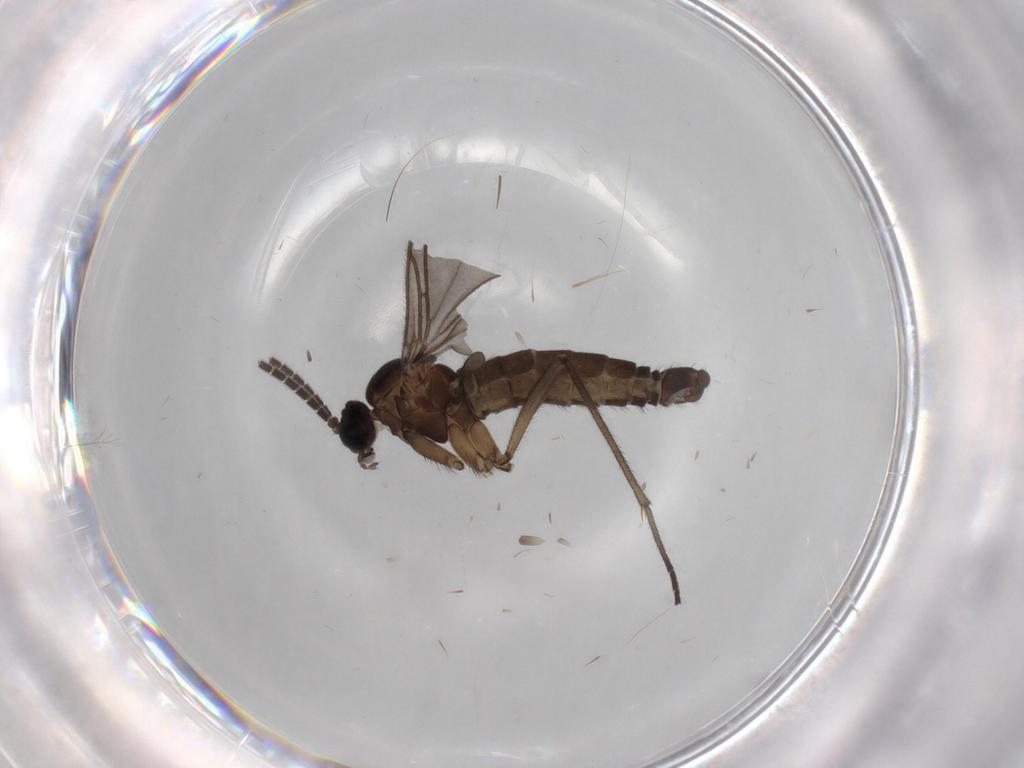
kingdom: Animalia
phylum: Arthropoda
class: Insecta
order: Diptera
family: Sciaridae
